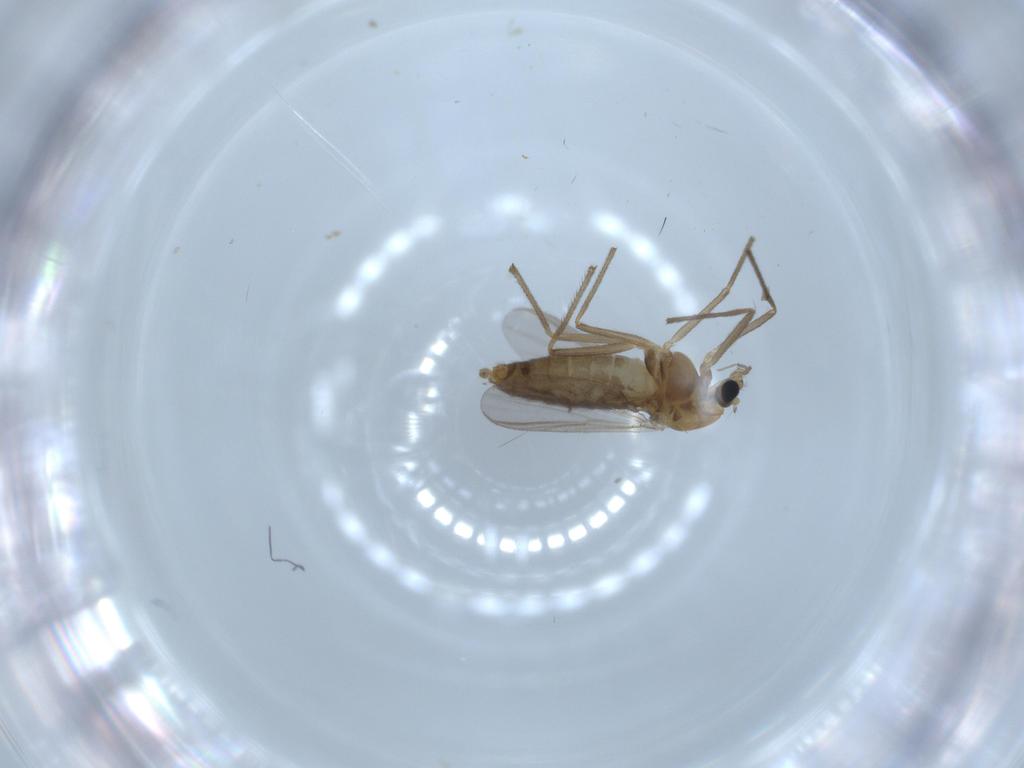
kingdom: Animalia
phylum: Arthropoda
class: Insecta
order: Diptera
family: Chironomidae
